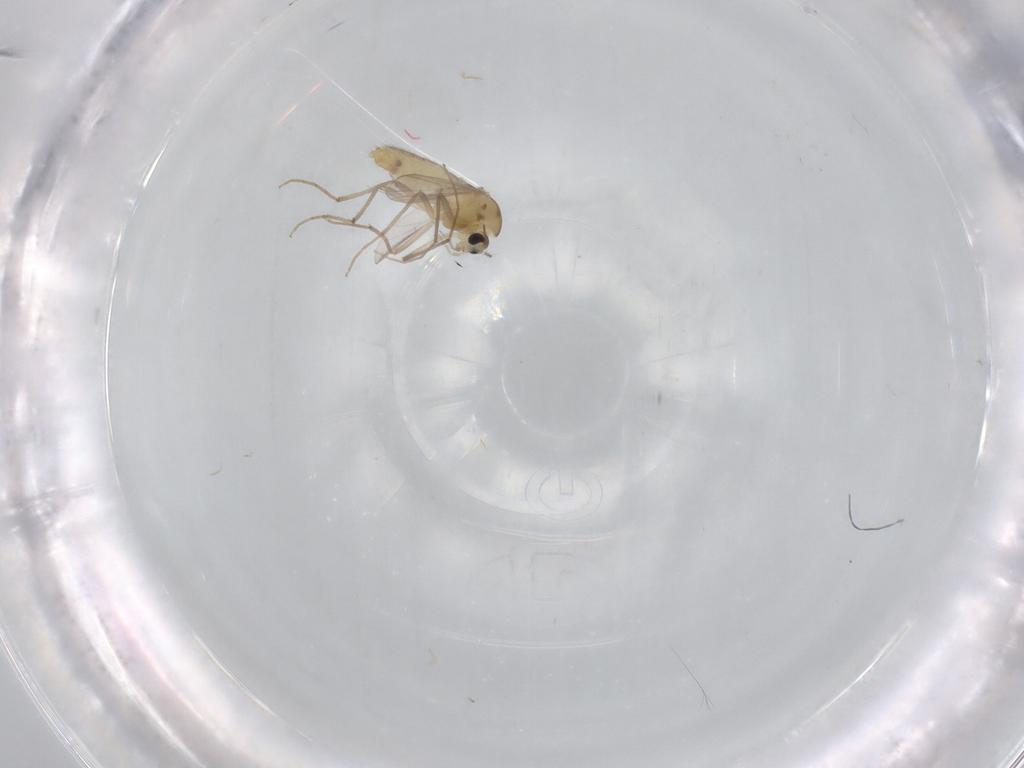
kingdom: Animalia
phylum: Arthropoda
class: Insecta
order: Diptera
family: Chironomidae
